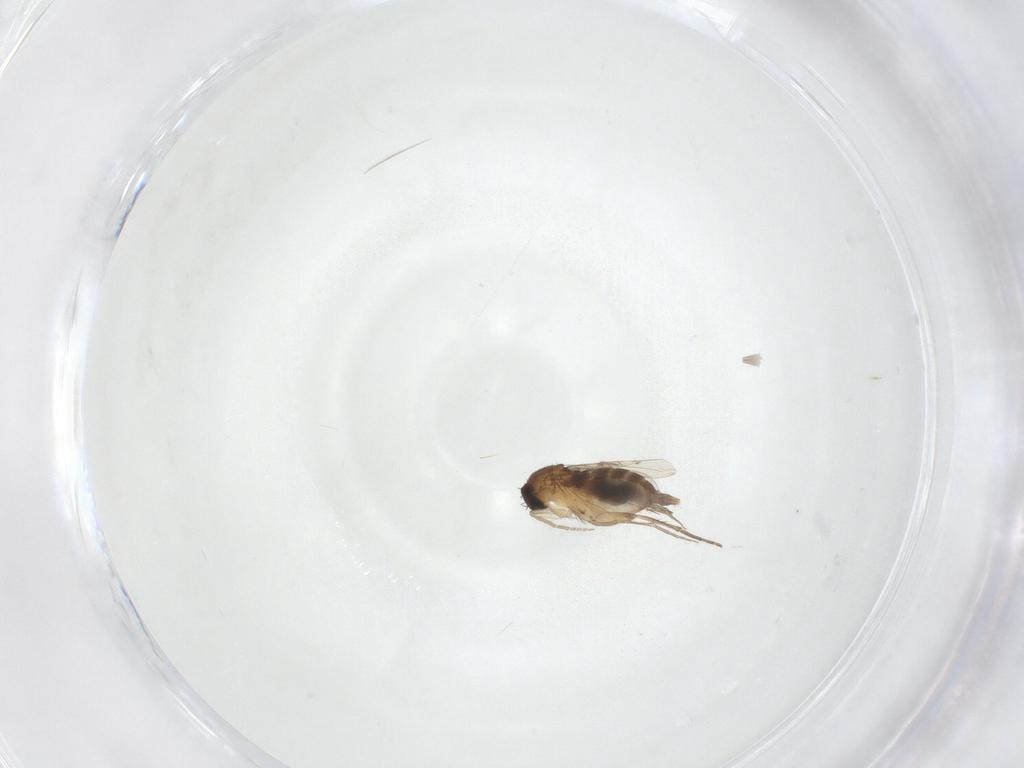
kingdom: Animalia
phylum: Arthropoda
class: Insecta
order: Diptera
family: Phoridae
